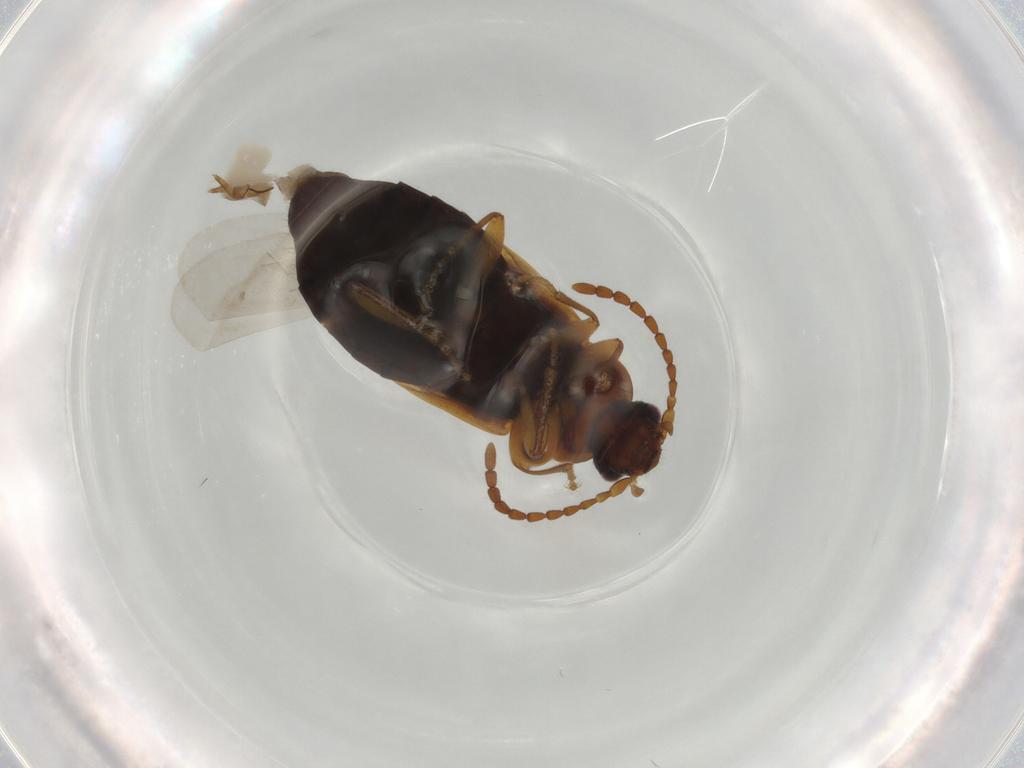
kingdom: Animalia
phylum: Arthropoda
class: Insecta
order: Coleoptera
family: Staphylinidae
